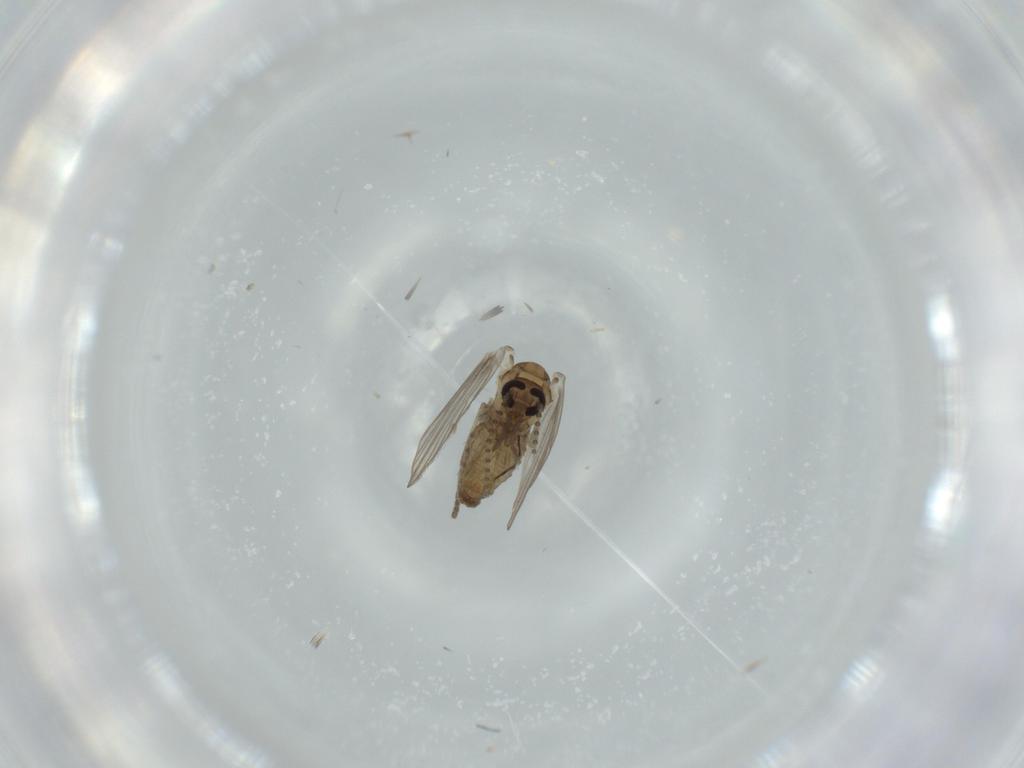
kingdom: Animalia
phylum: Arthropoda
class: Insecta
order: Diptera
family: Psychodidae
